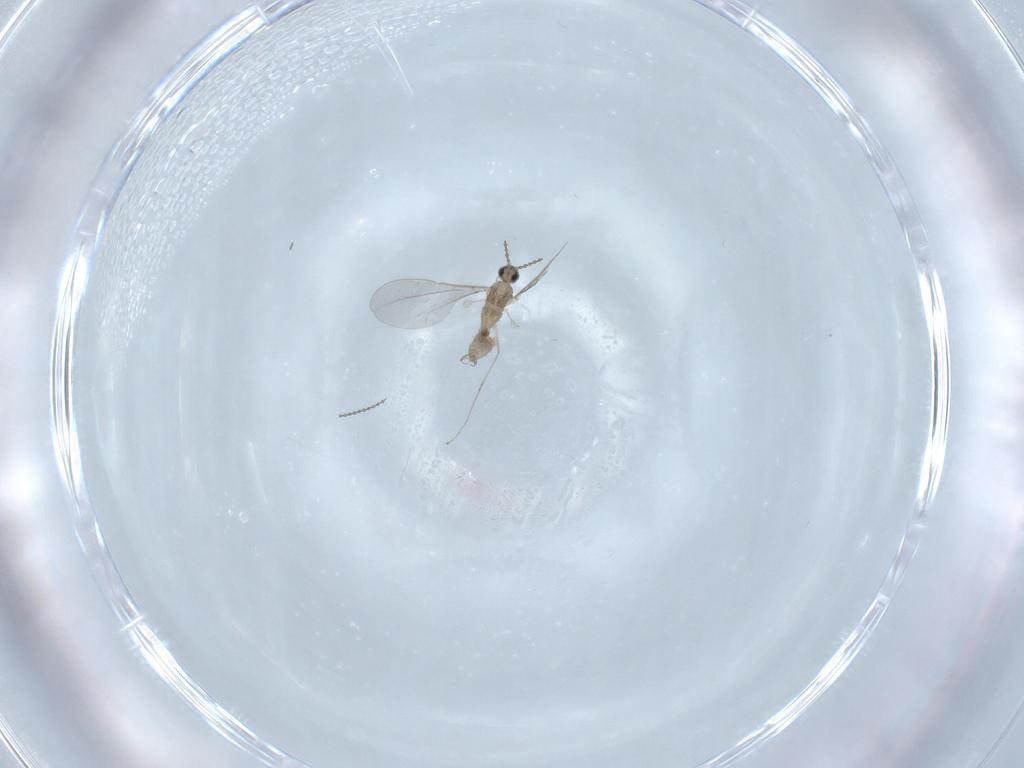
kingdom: Animalia
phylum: Arthropoda
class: Insecta
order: Diptera
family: Cecidomyiidae
